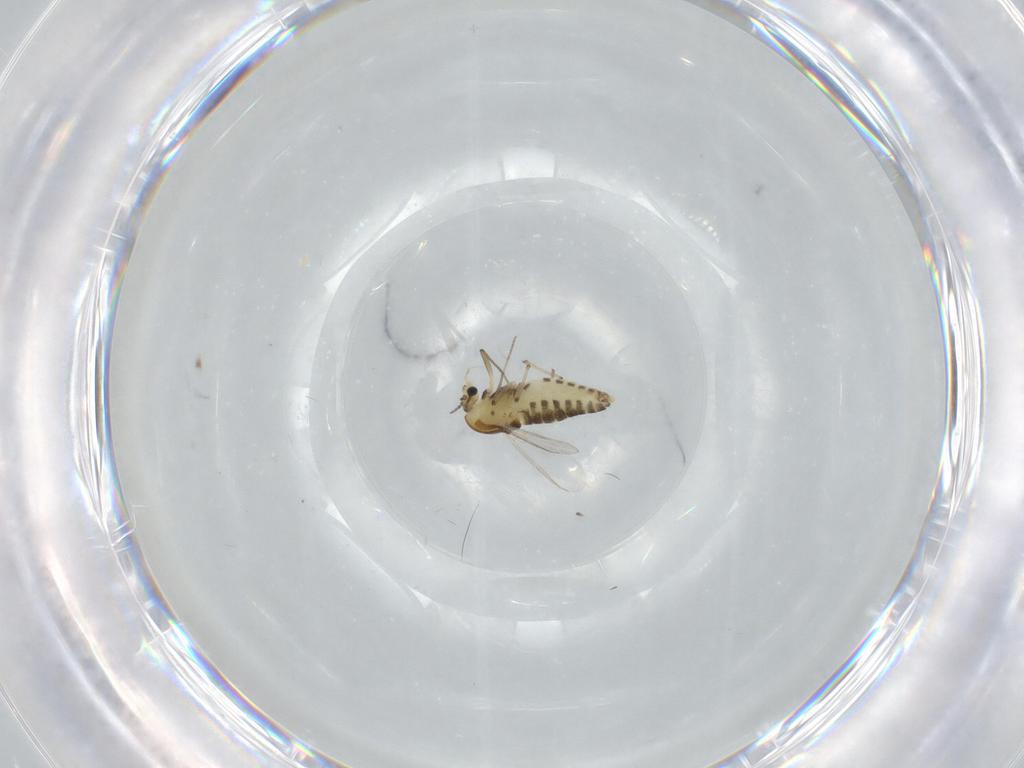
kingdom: Animalia
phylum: Arthropoda
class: Insecta
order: Diptera
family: Chironomidae
